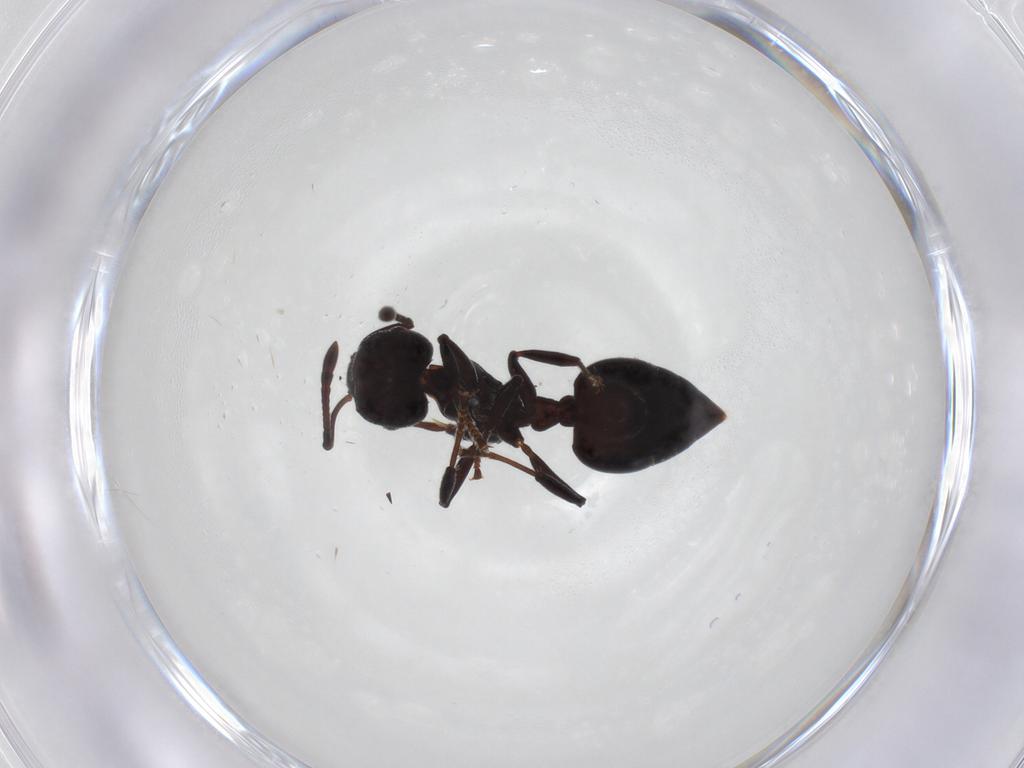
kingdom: Animalia
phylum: Arthropoda
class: Insecta
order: Hymenoptera
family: Formicidae
